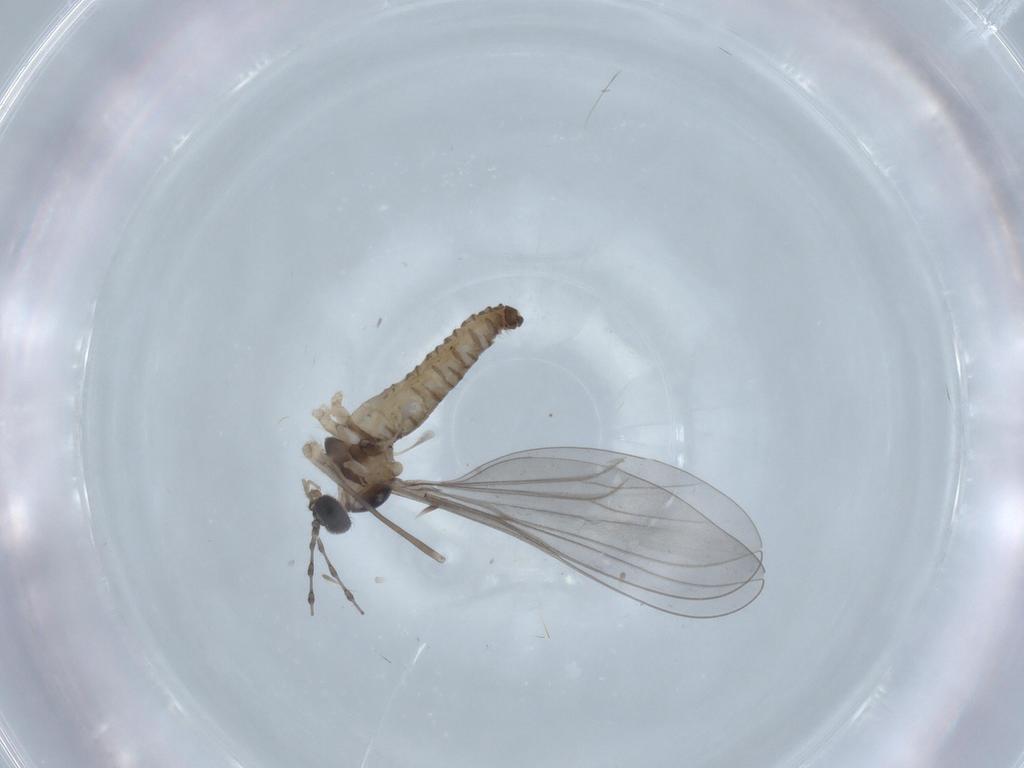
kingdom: Animalia
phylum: Arthropoda
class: Insecta
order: Diptera
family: Cecidomyiidae
